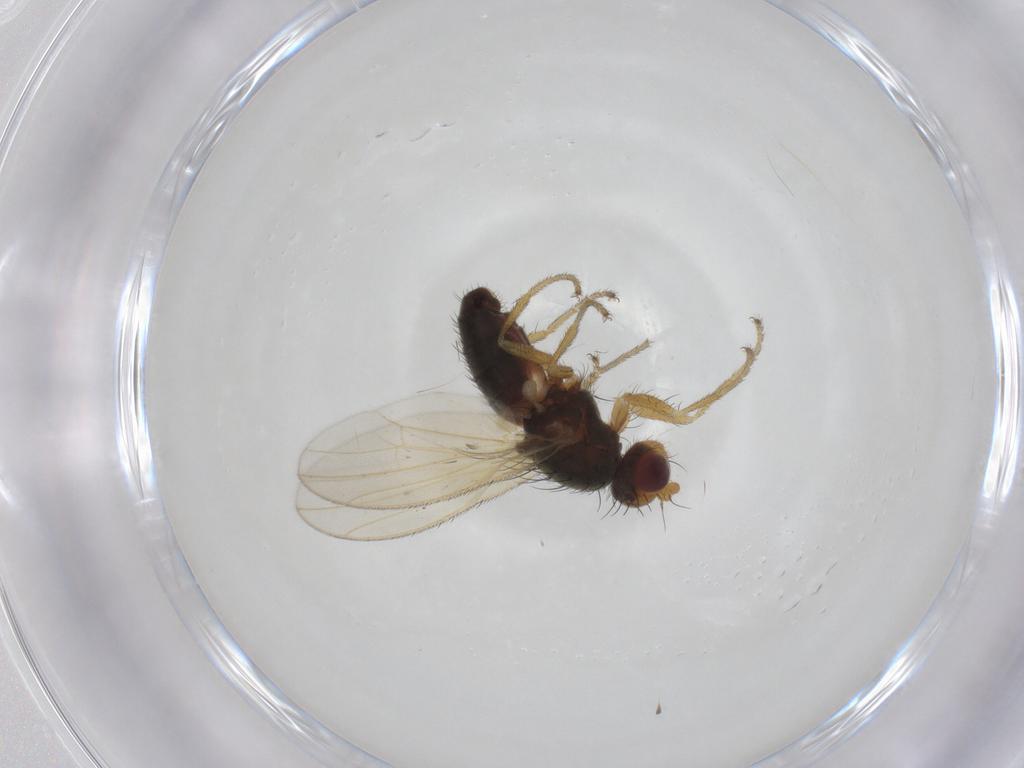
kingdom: Animalia
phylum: Arthropoda
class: Insecta
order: Diptera
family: Heleomyzidae
